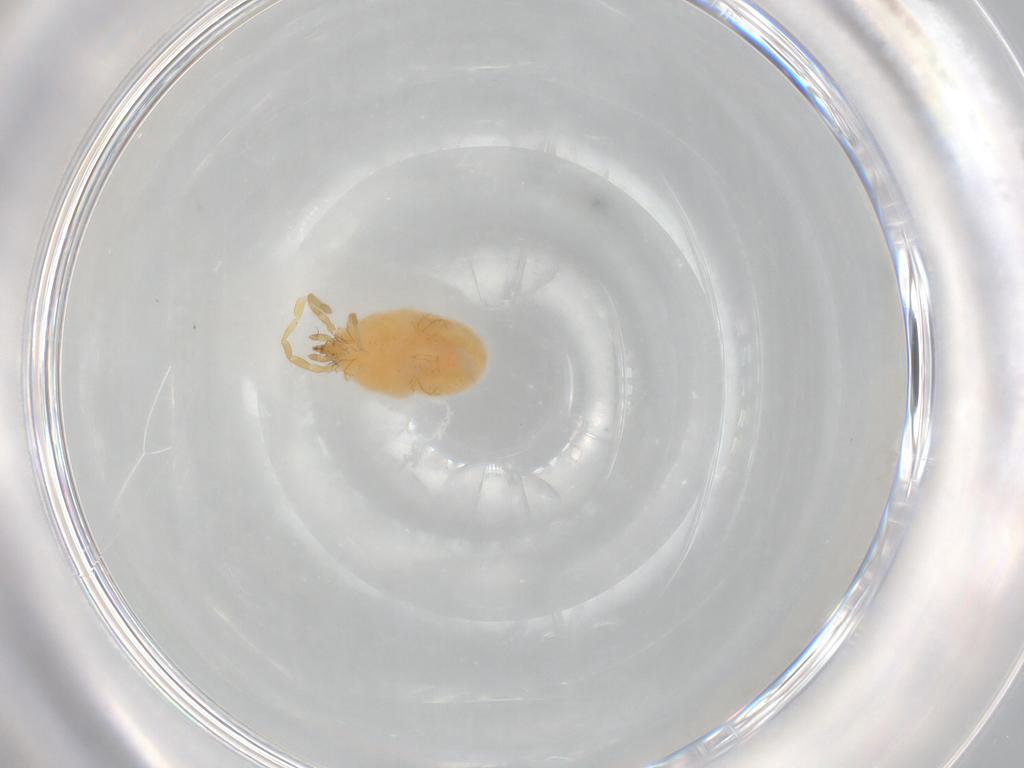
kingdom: Animalia
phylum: Arthropoda
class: Arachnida
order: Trombidiformes
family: Erythraeidae
